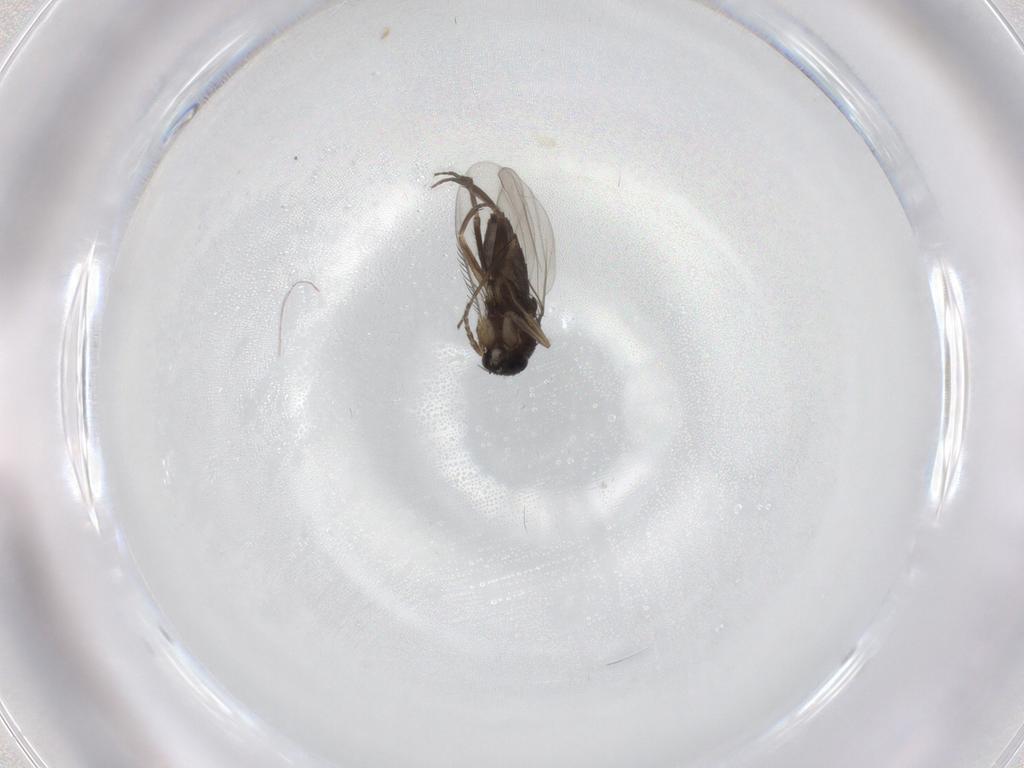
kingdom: Animalia
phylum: Arthropoda
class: Insecta
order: Diptera
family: Phoridae
